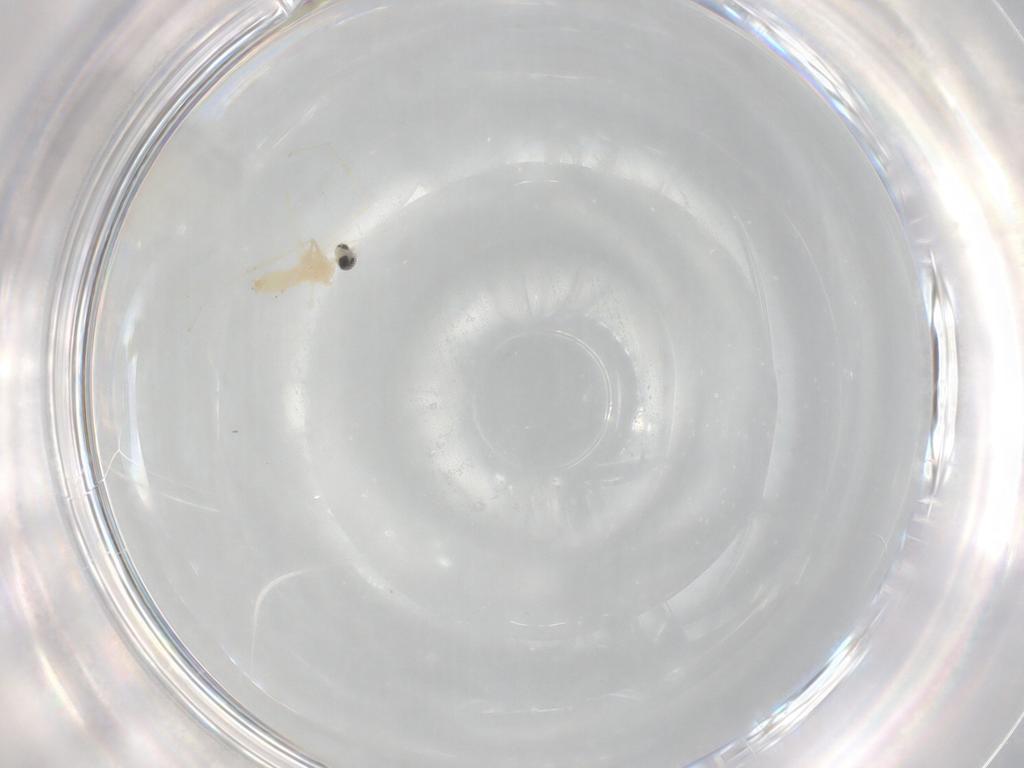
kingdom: Animalia
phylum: Arthropoda
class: Insecta
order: Diptera
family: Cecidomyiidae
